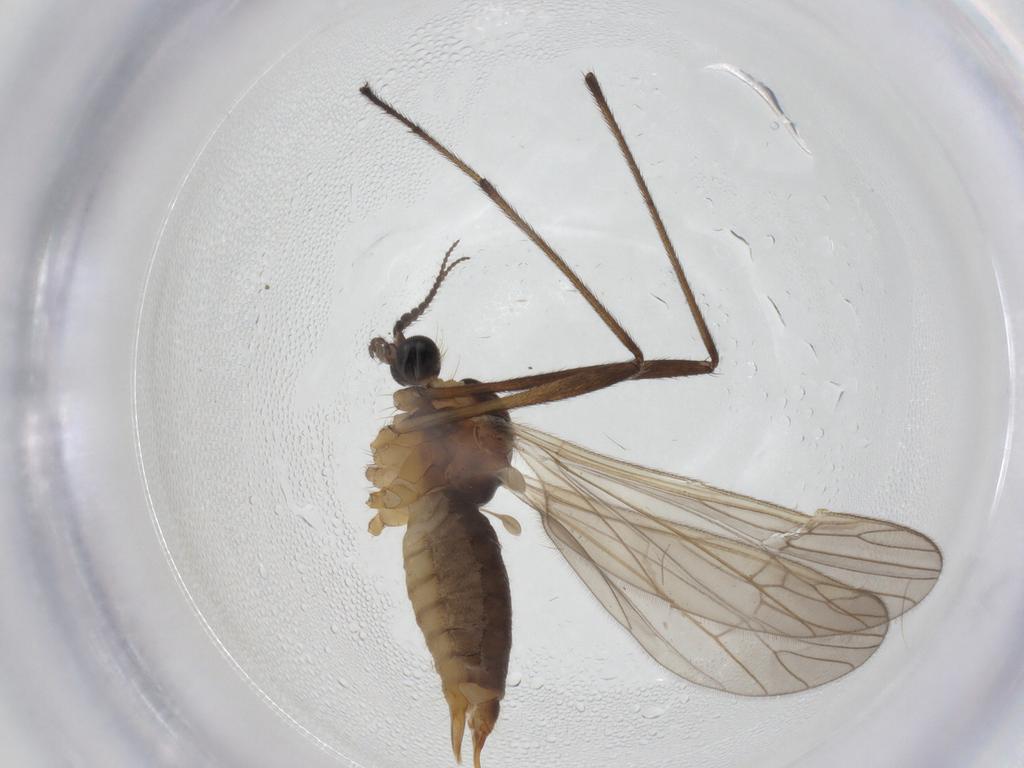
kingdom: Animalia
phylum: Arthropoda
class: Insecta
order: Diptera
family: Agromyzidae
